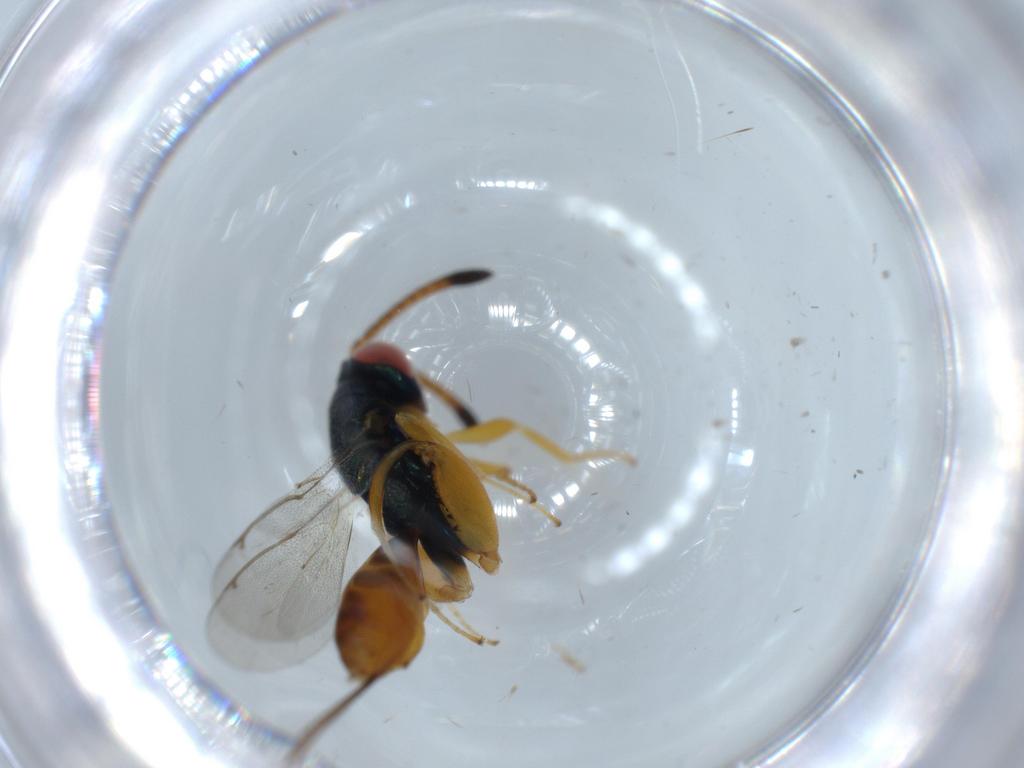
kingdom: Animalia
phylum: Arthropoda
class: Insecta
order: Hymenoptera
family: Torymidae
